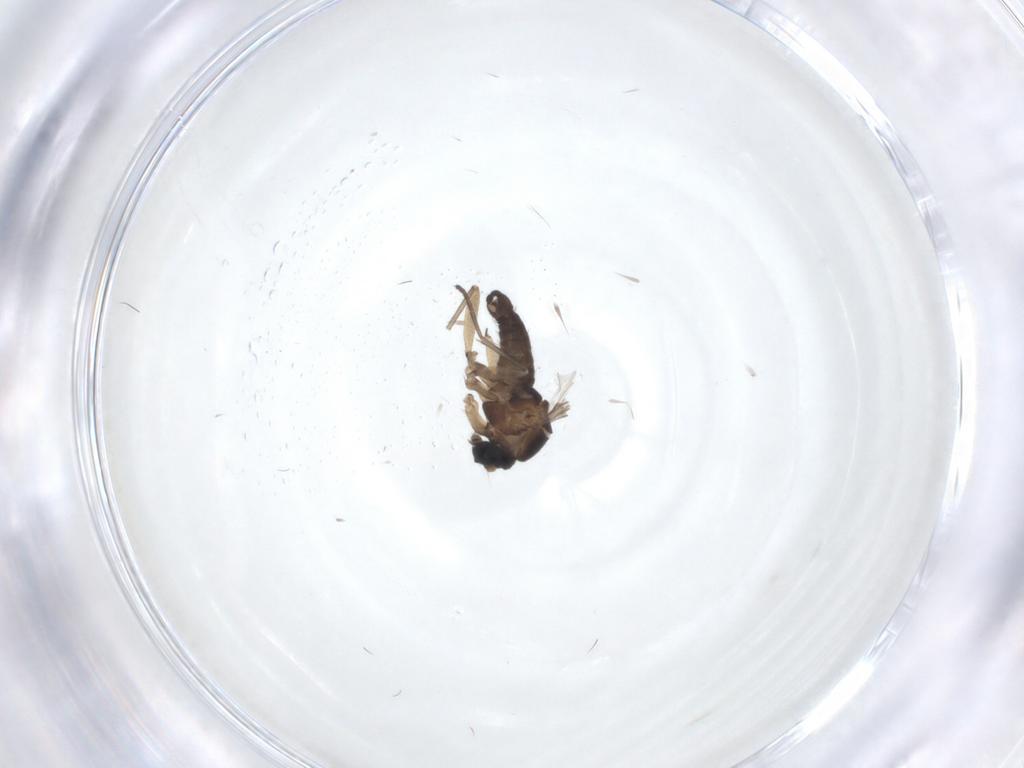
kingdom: Animalia
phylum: Arthropoda
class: Insecta
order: Diptera
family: Sciaridae
